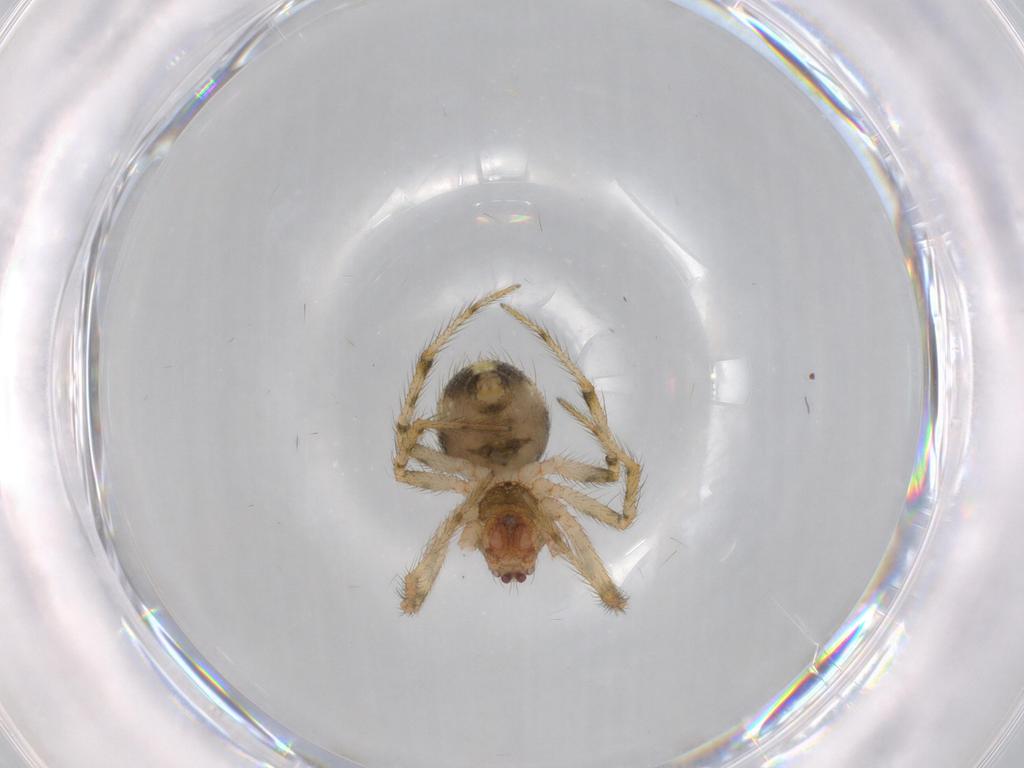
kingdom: Animalia
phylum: Arthropoda
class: Arachnida
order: Araneae
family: Theridiidae
